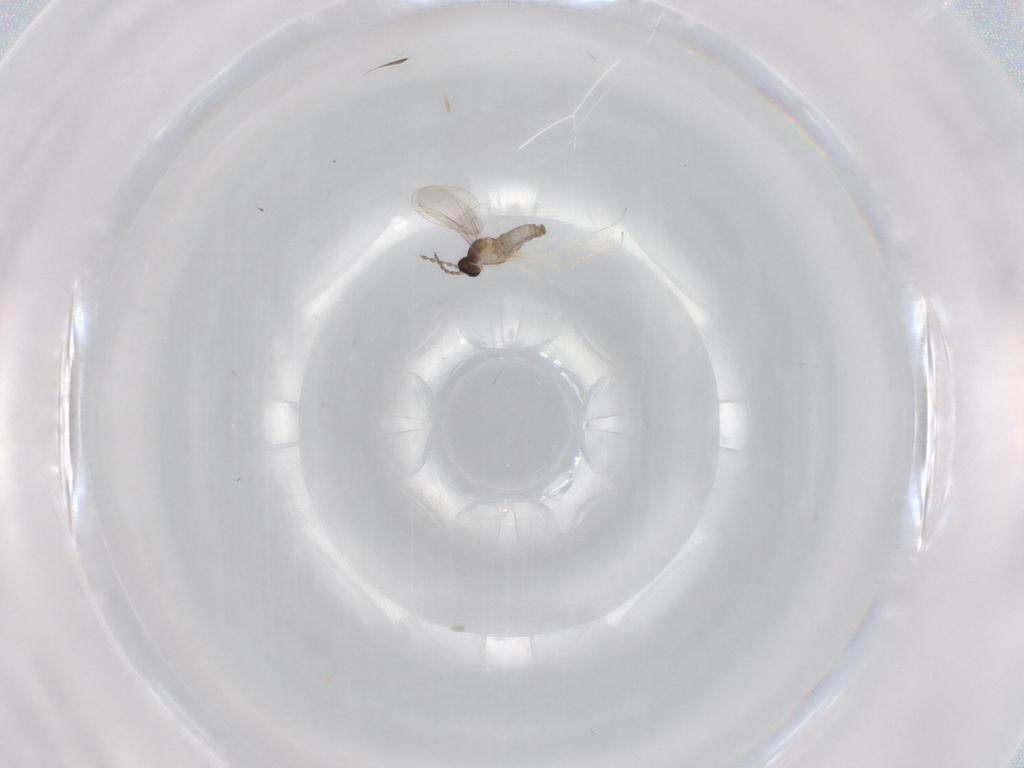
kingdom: Animalia
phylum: Arthropoda
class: Insecta
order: Diptera
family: Cecidomyiidae
